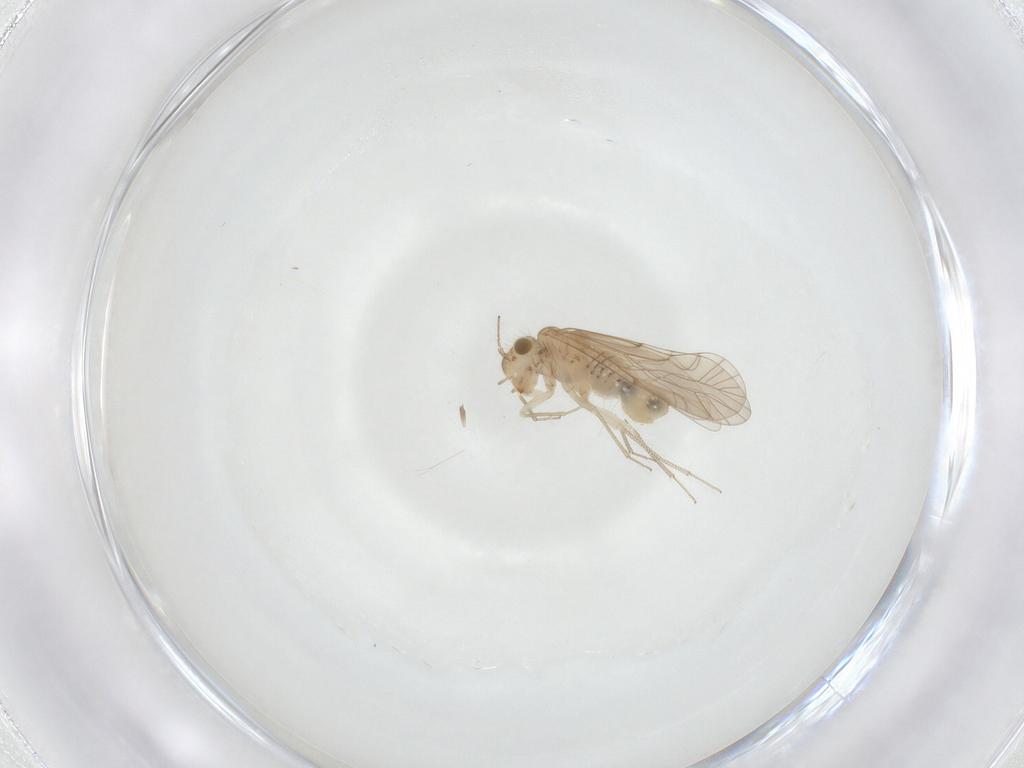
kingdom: Animalia
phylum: Arthropoda
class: Insecta
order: Psocodea
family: Lachesillidae
